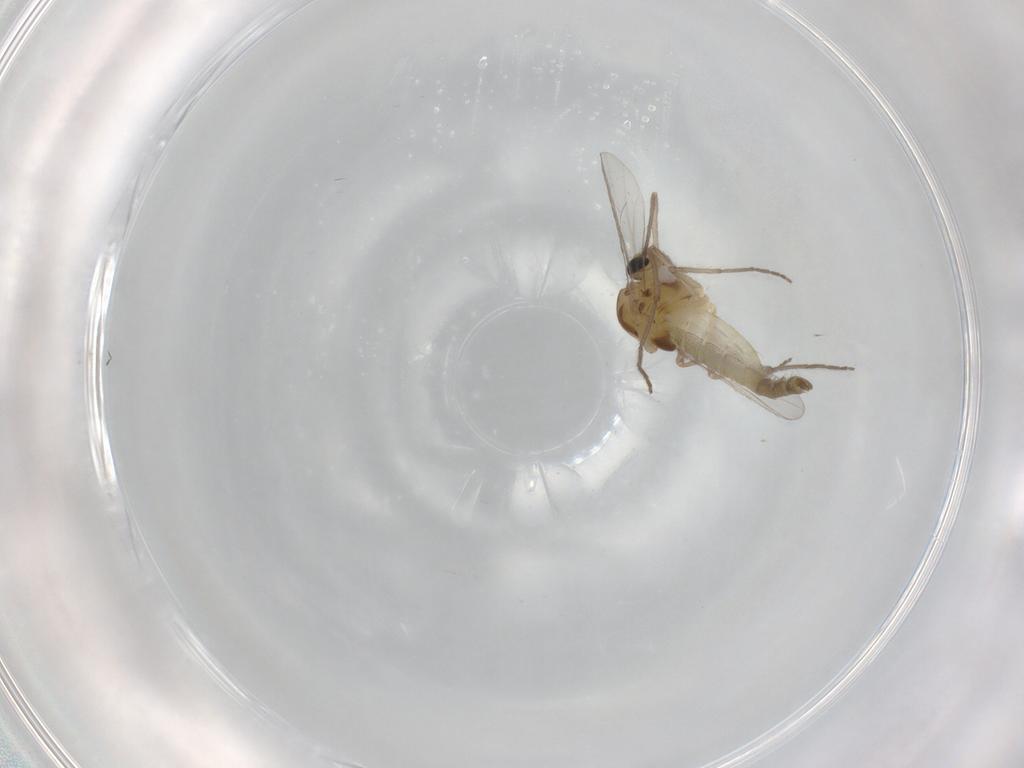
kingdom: Animalia
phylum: Arthropoda
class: Insecta
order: Diptera
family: Chironomidae
